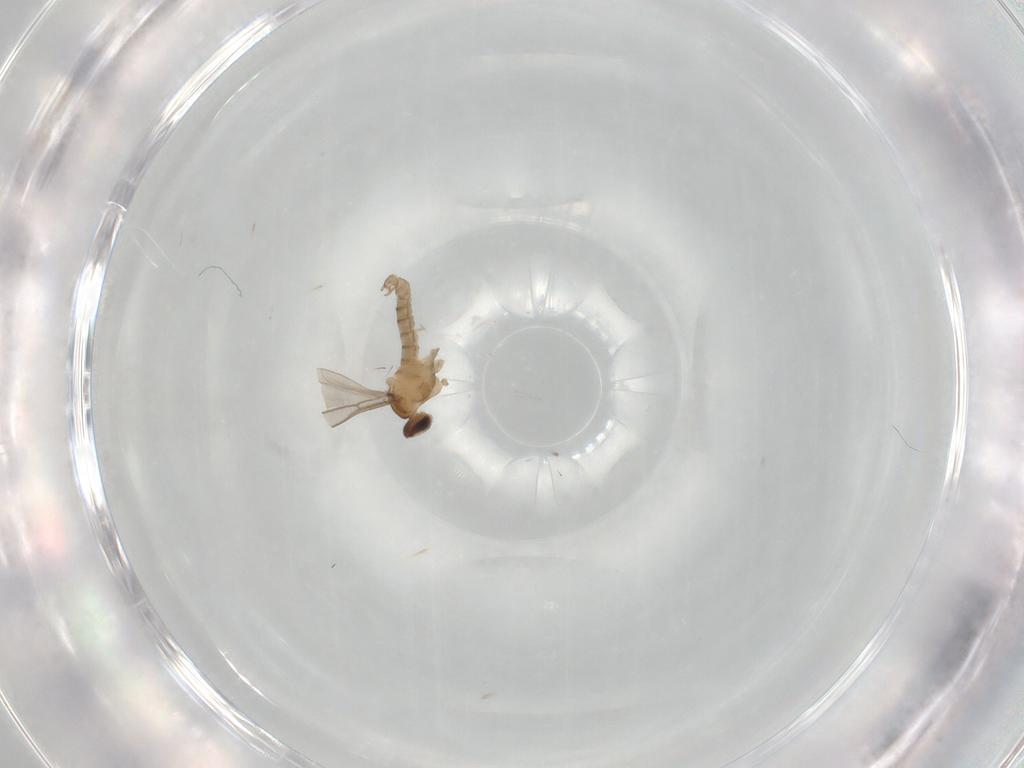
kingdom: Animalia
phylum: Arthropoda
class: Insecta
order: Diptera
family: Cecidomyiidae
